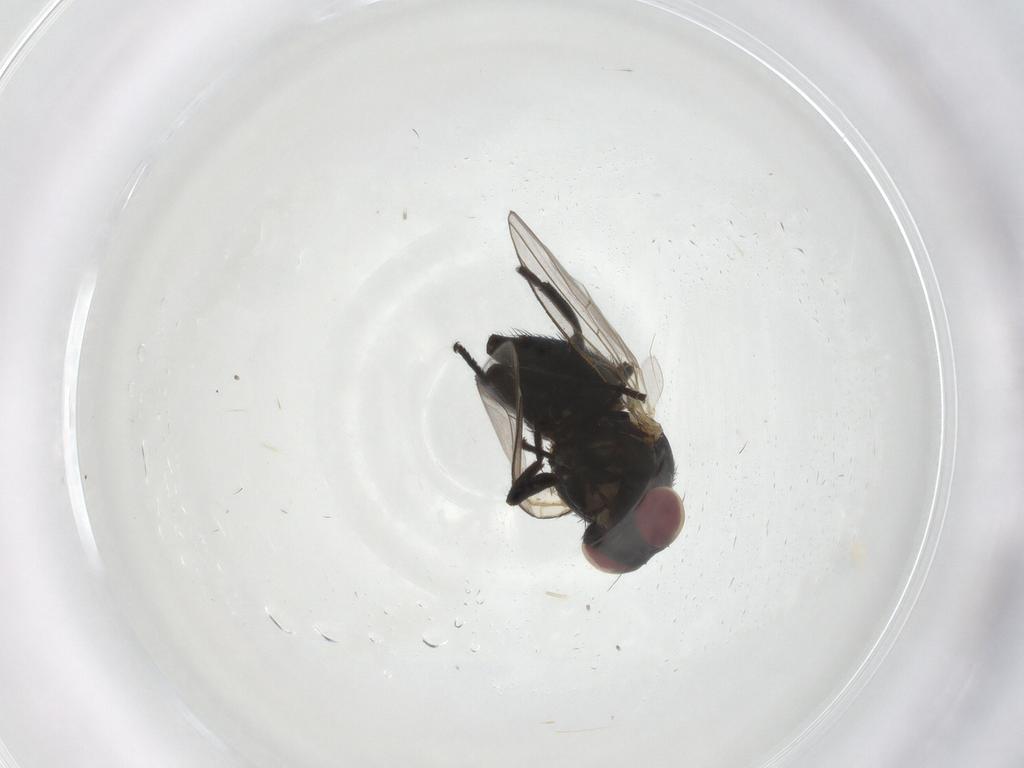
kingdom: Animalia
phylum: Arthropoda
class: Insecta
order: Diptera
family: Agromyzidae
